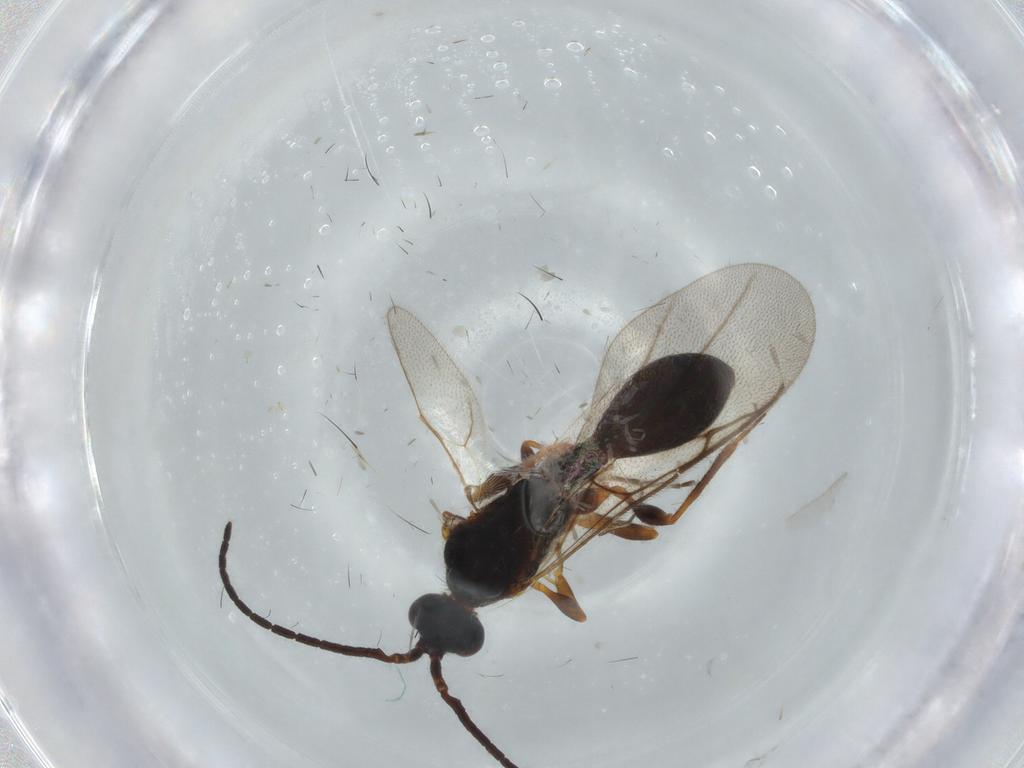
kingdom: Animalia
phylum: Arthropoda
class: Insecta
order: Hymenoptera
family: Diapriidae
